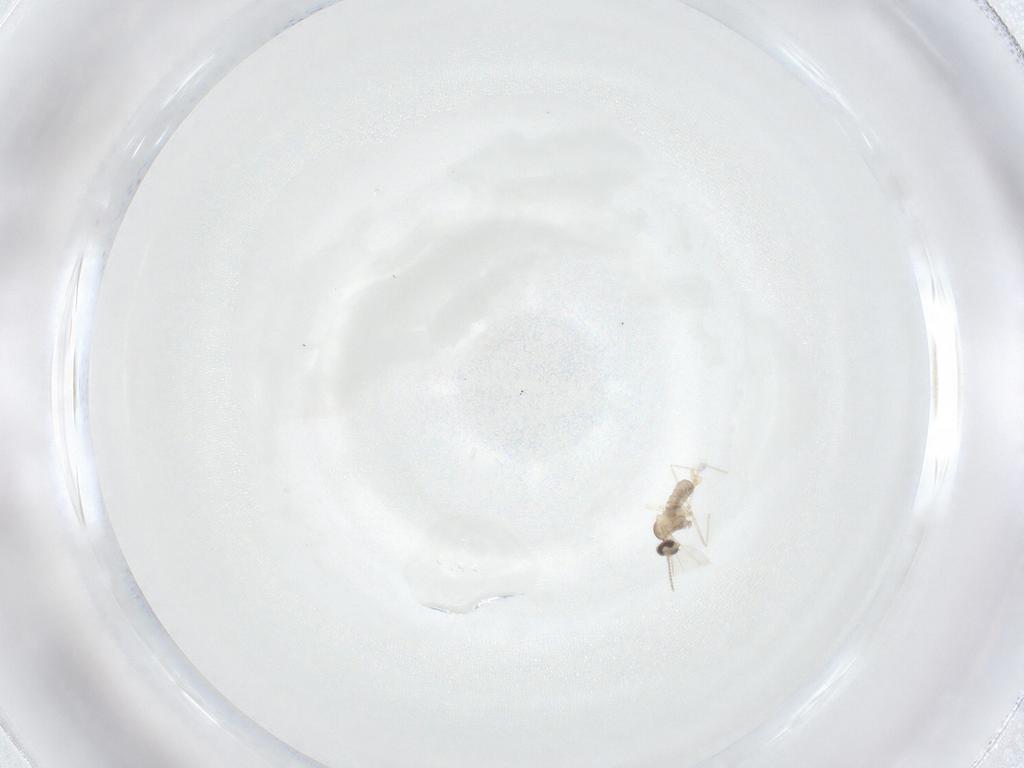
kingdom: Animalia
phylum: Arthropoda
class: Insecta
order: Diptera
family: Cecidomyiidae
